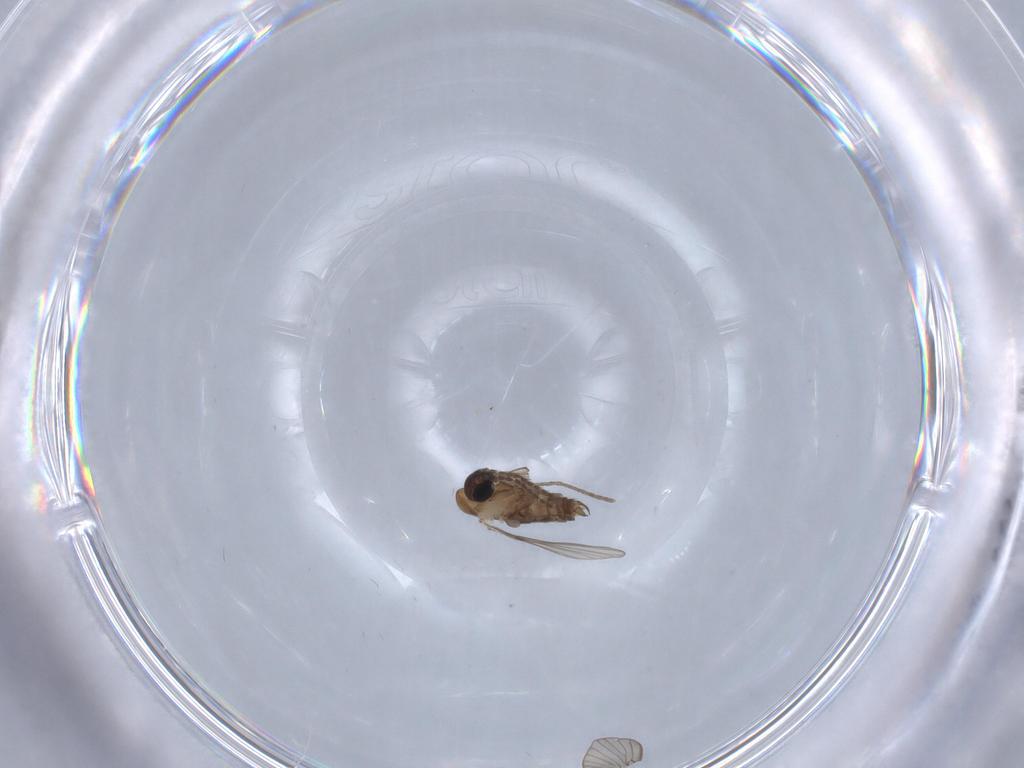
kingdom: Animalia
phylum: Arthropoda
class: Insecta
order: Diptera
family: Psychodidae
